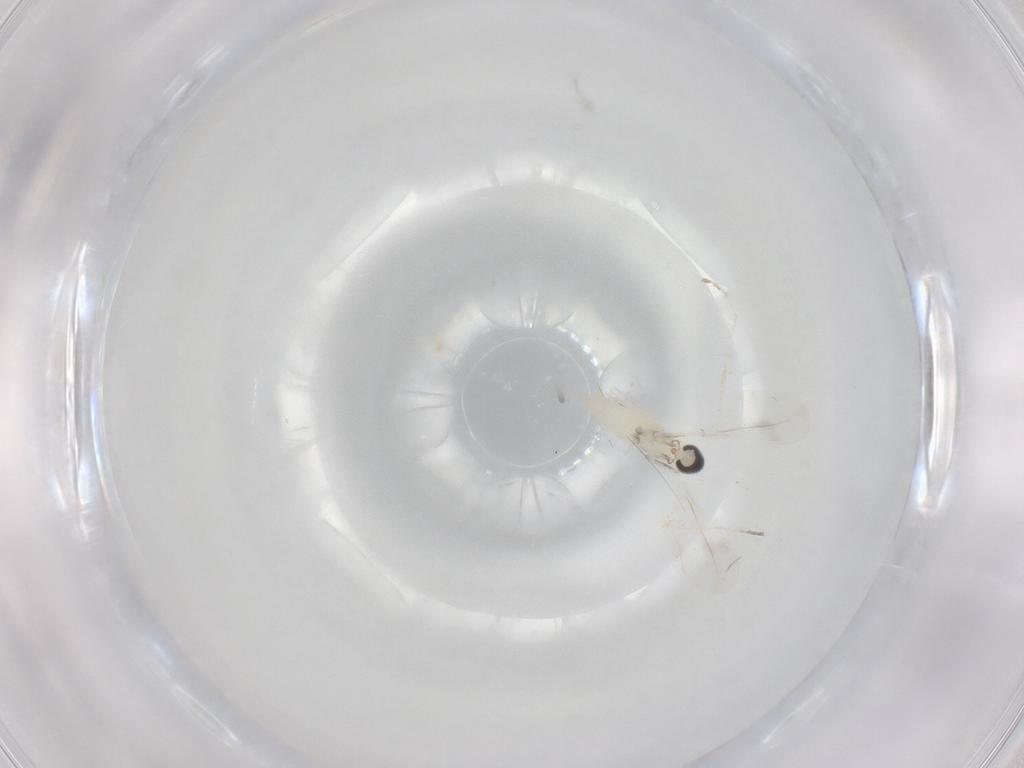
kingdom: Animalia
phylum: Arthropoda
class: Insecta
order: Diptera
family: Cecidomyiidae
